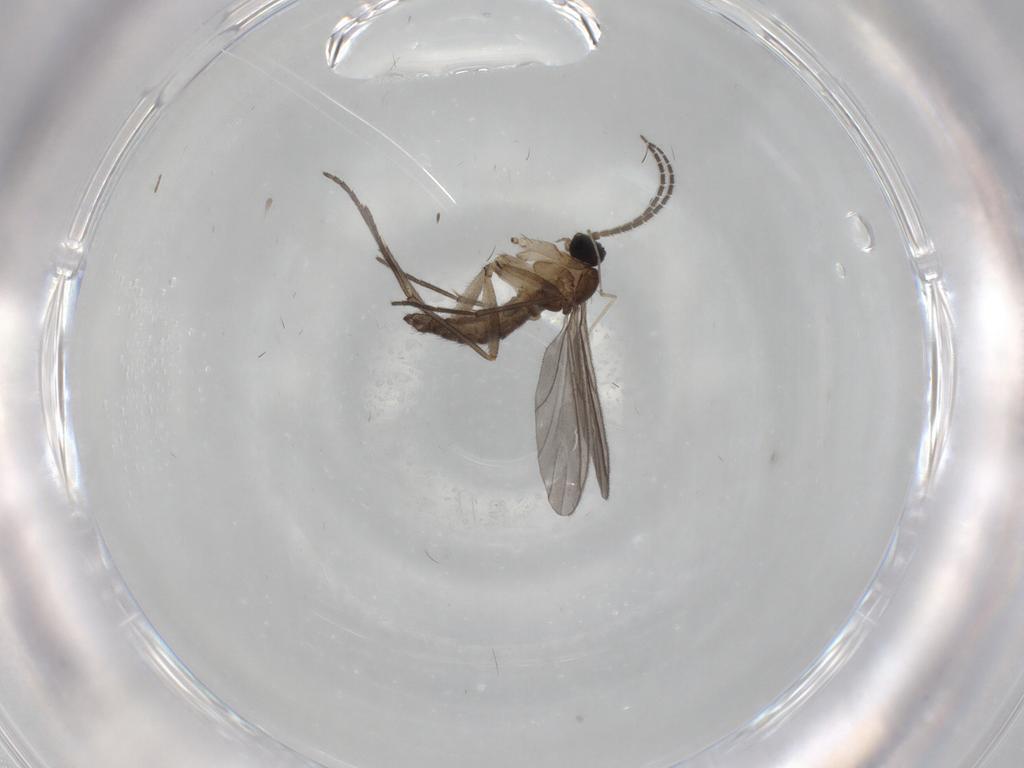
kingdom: Animalia
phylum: Arthropoda
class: Insecta
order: Diptera
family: Sciaridae
